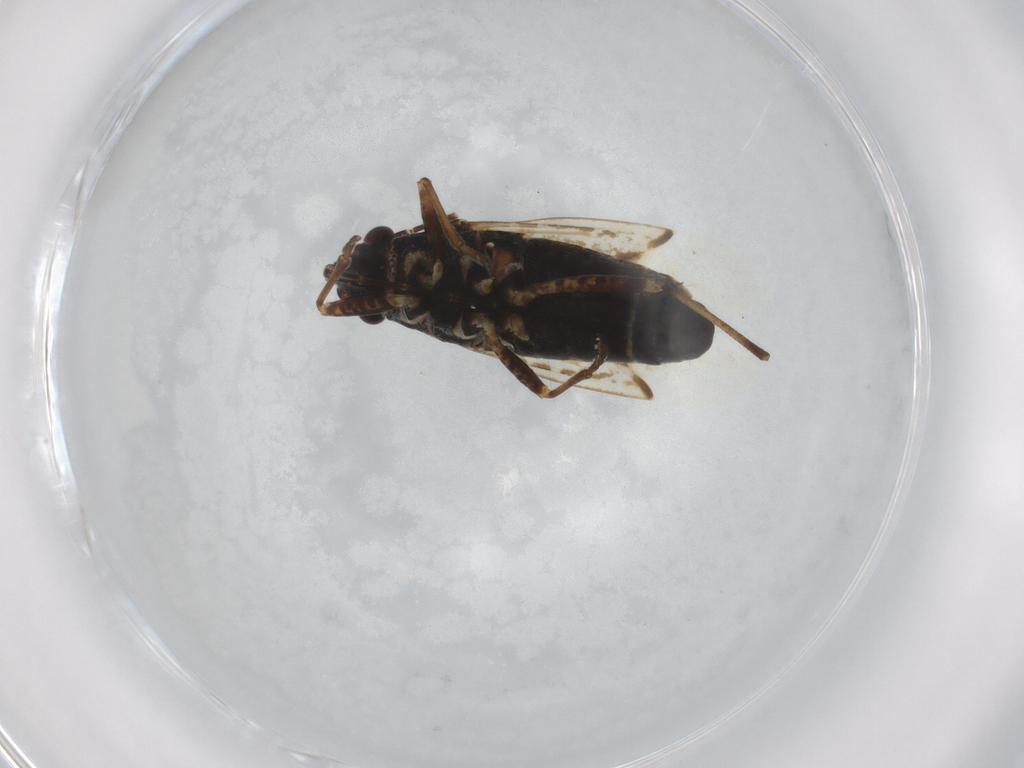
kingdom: Animalia
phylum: Arthropoda
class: Insecta
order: Hemiptera
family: Lygaeidae
